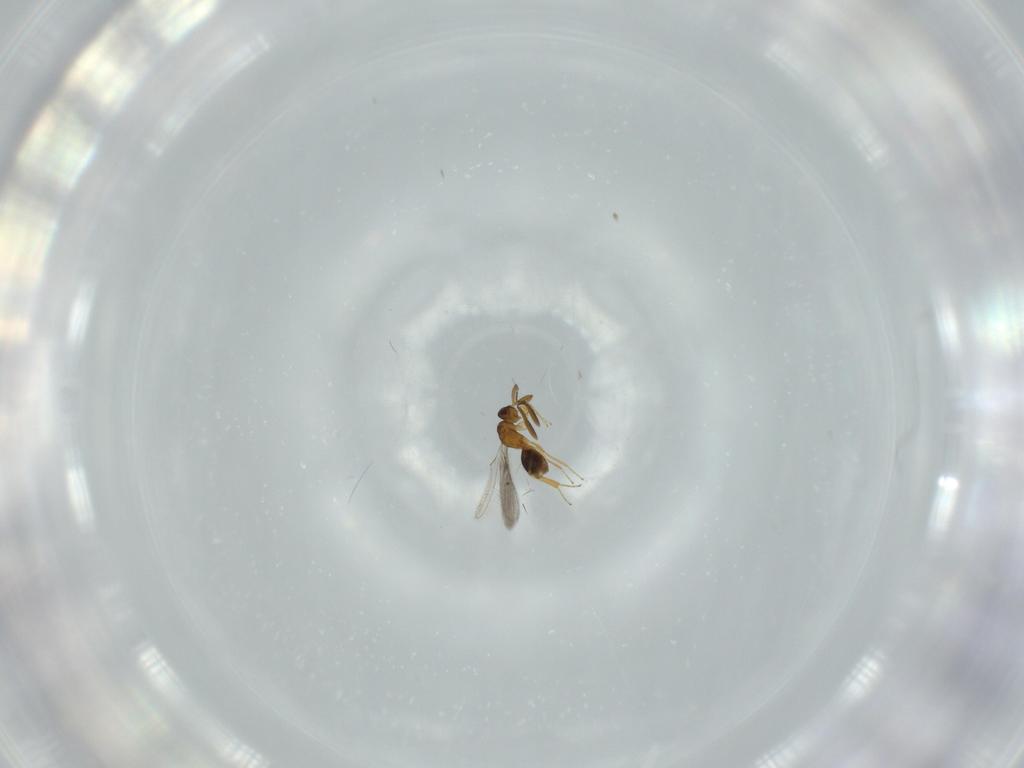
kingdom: Animalia
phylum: Arthropoda
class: Insecta
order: Hymenoptera
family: Mymaridae
